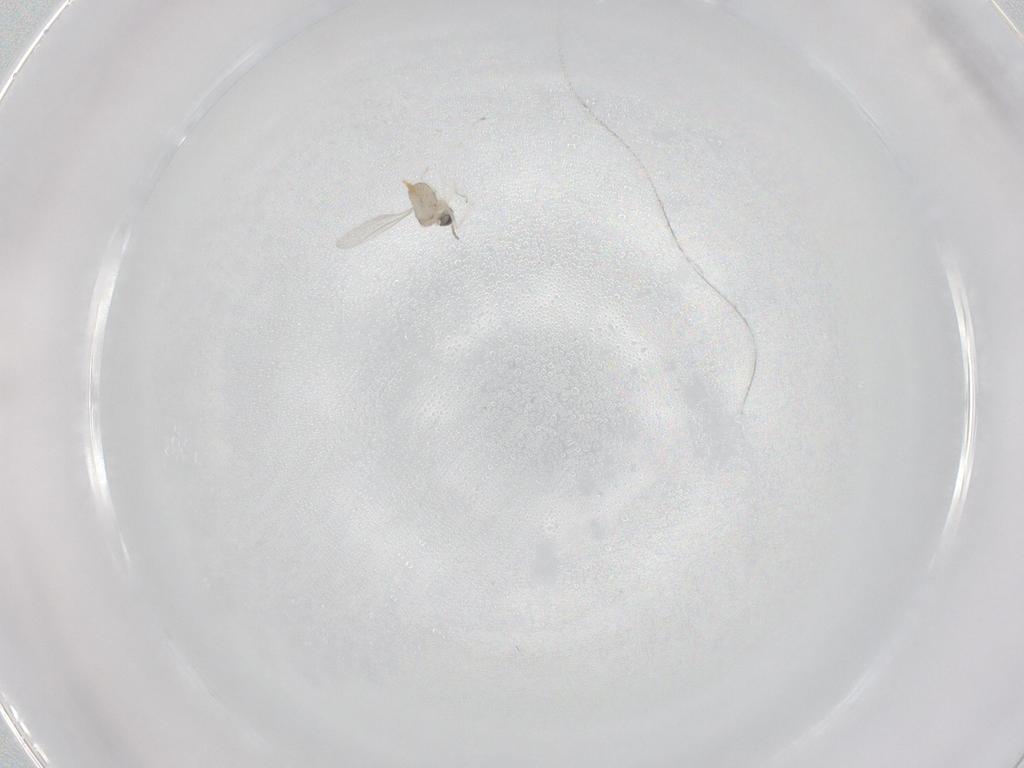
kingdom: Animalia
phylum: Arthropoda
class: Insecta
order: Diptera
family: Cecidomyiidae
